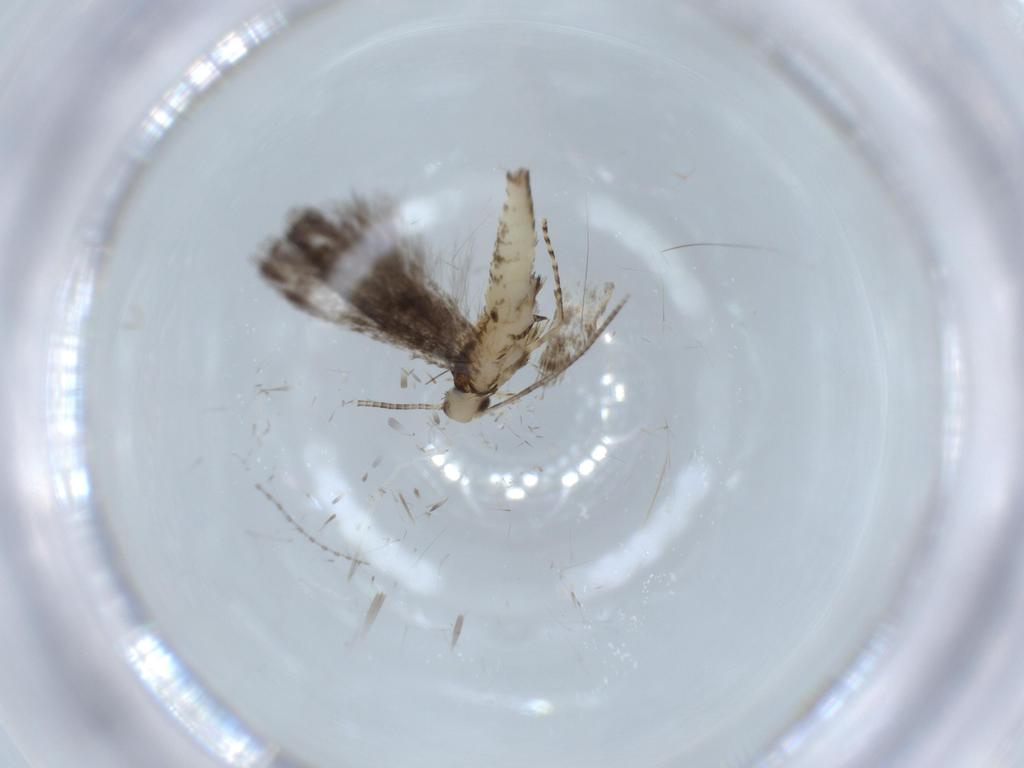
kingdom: Animalia
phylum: Arthropoda
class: Insecta
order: Lepidoptera
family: Gracillariidae
